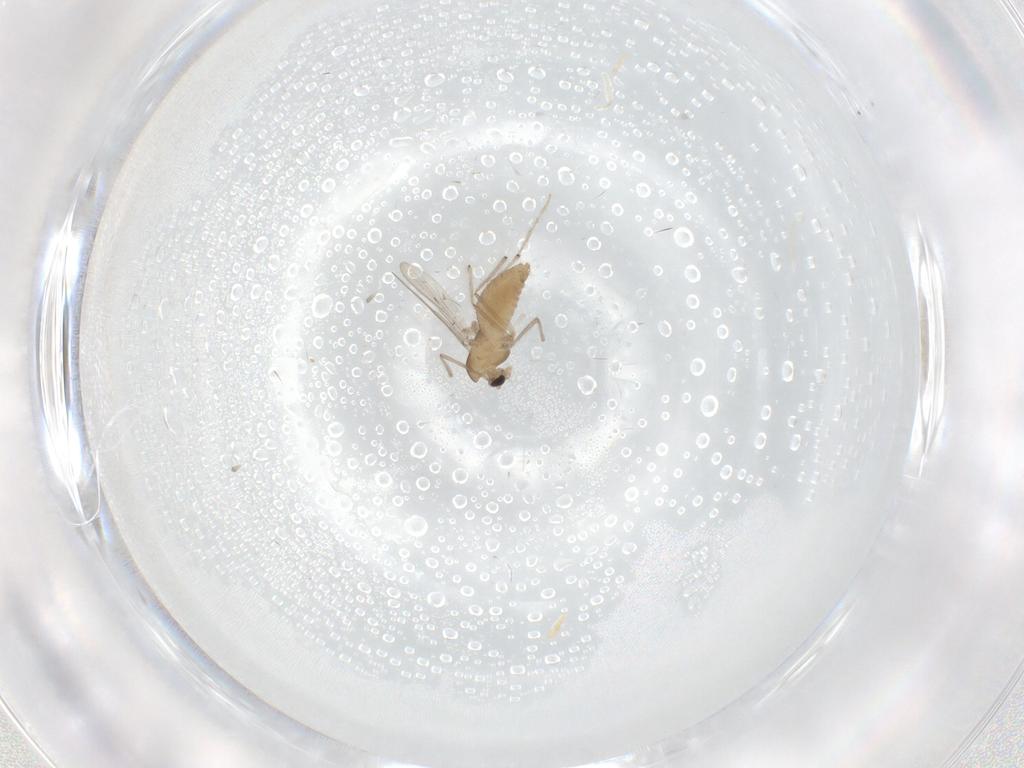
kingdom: Animalia
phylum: Arthropoda
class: Insecta
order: Diptera
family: Chironomidae
